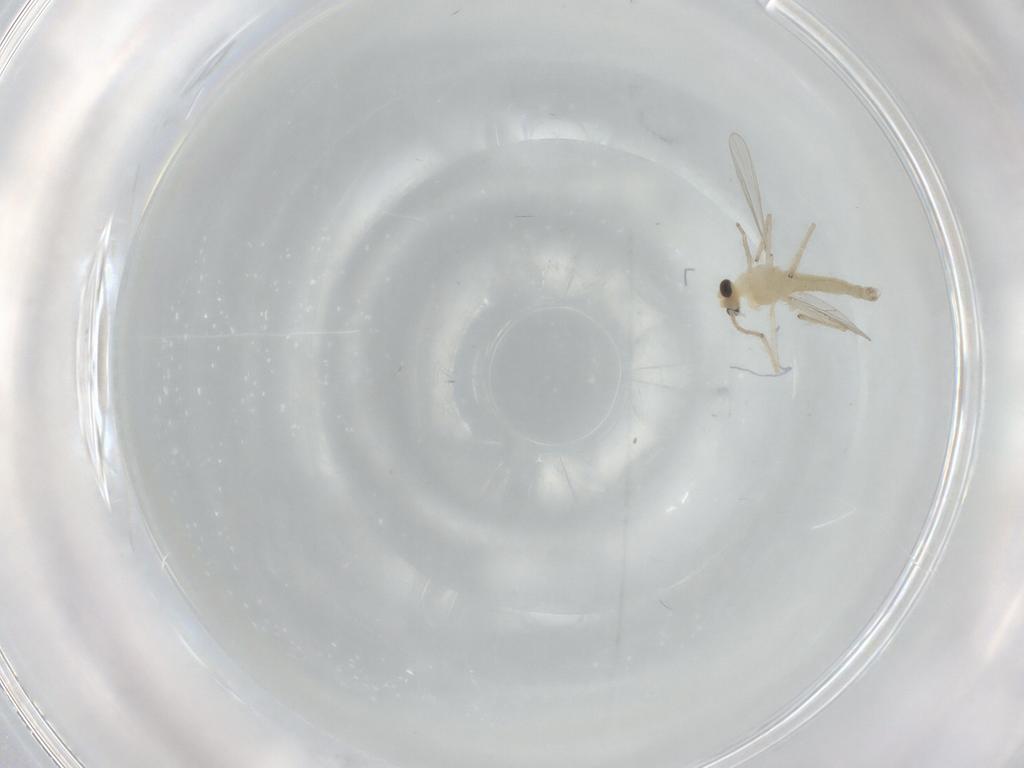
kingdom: Animalia
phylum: Arthropoda
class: Insecta
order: Diptera
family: Chironomidae
